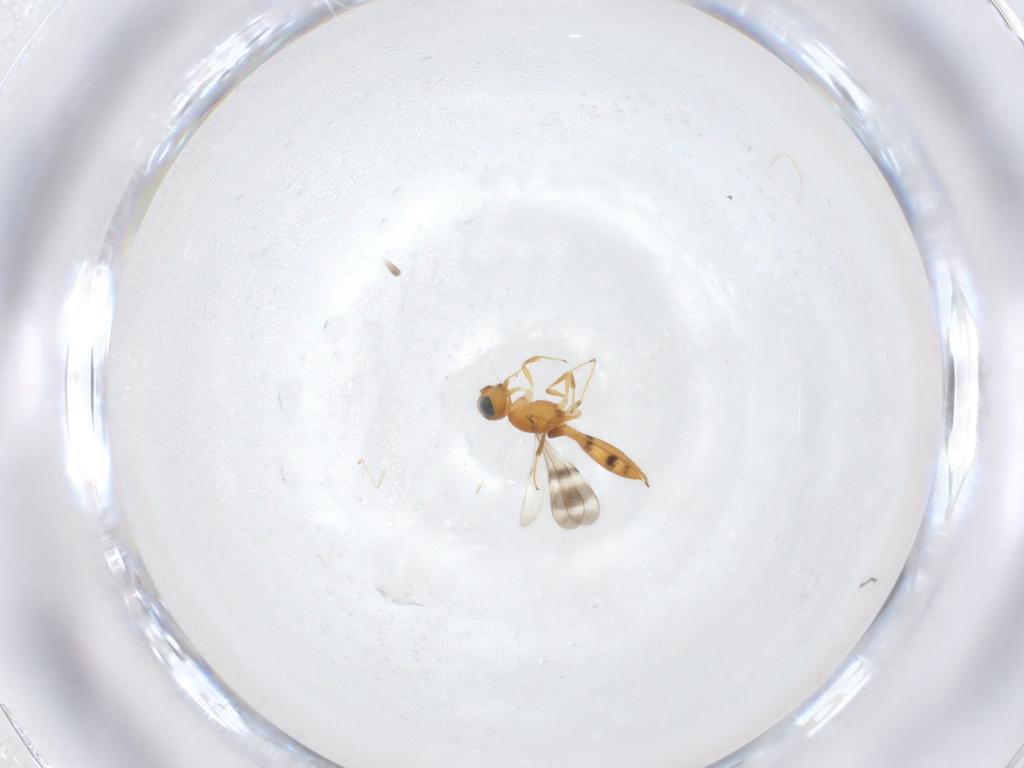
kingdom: Animalia
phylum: Arthropoda
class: Insecta
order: Hymenoptera
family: Scelionidae
